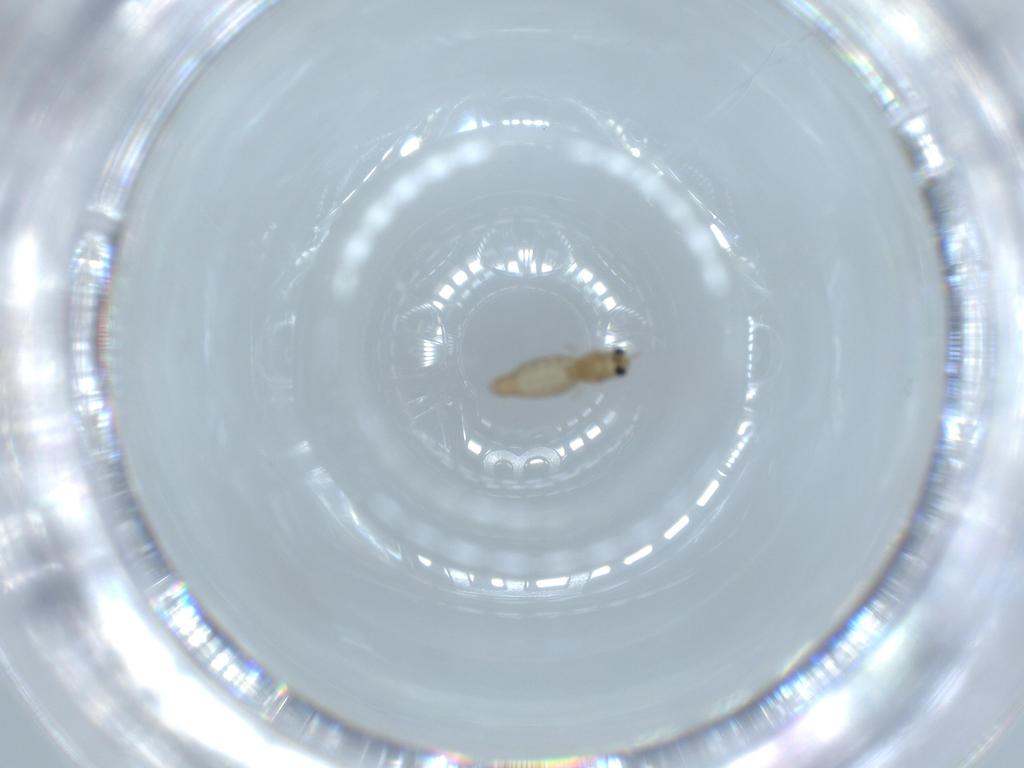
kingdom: Animalia
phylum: Arthropoda
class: Insecta
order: Diptera
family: Chironomidae
